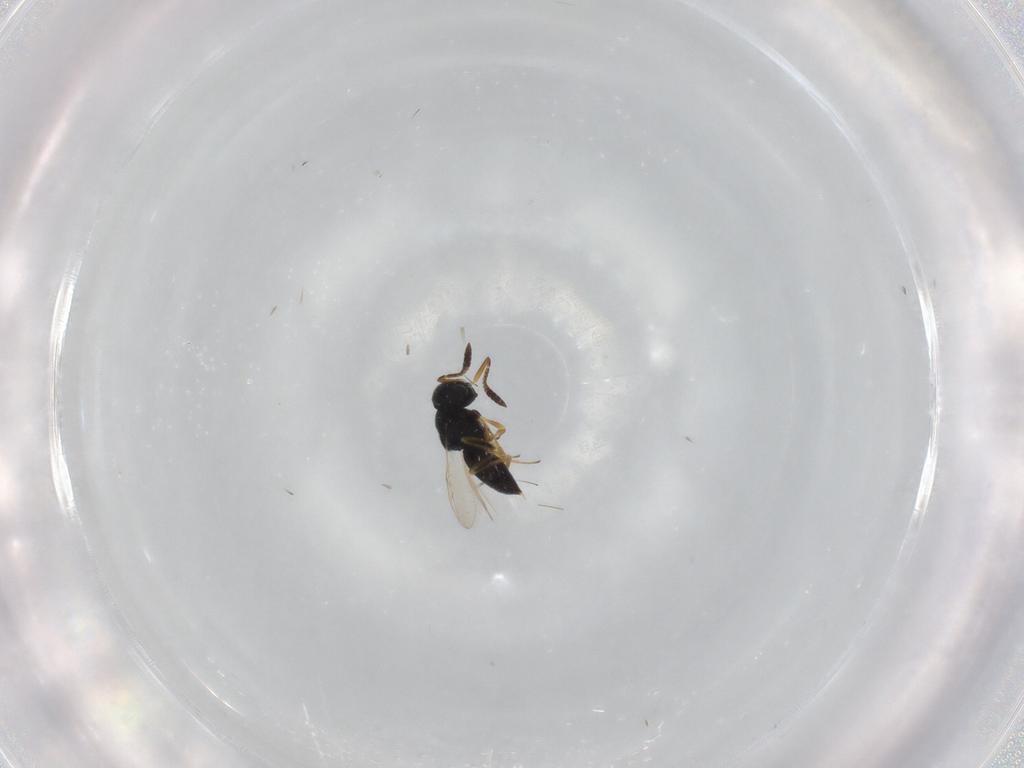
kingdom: Animalia
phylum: Arthropoda
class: Insecta
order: Hymenoptera
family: Scelionidae
